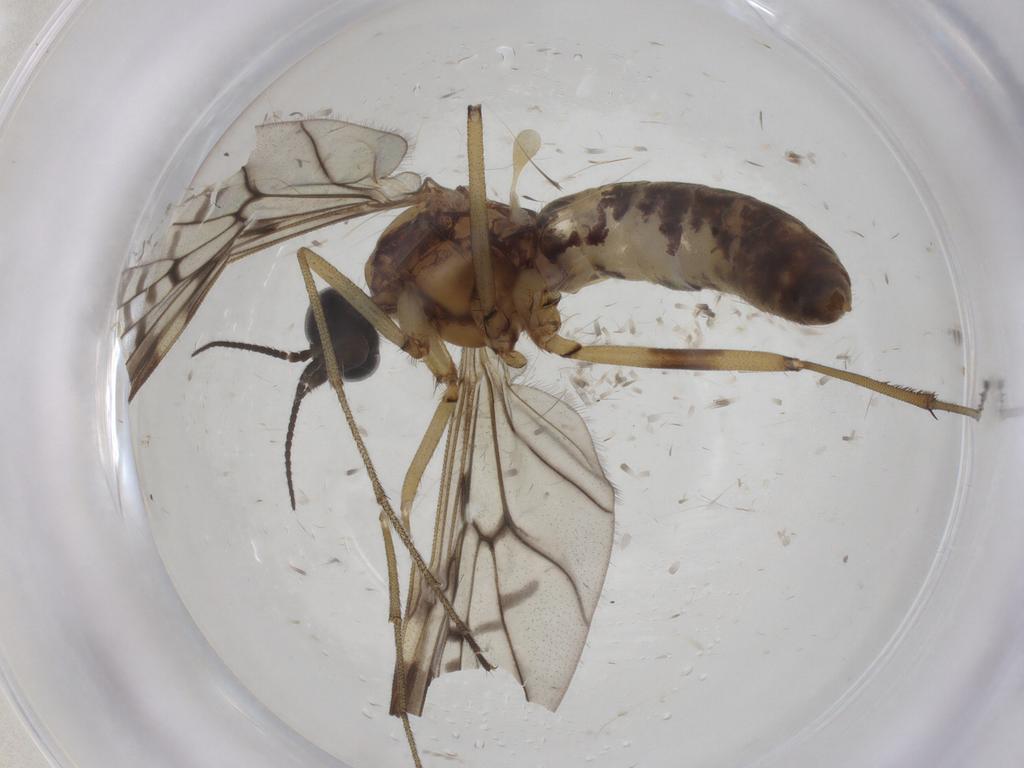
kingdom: Animalia
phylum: Arthropoda
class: Insecta
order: Diptera
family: Anisopodidae
